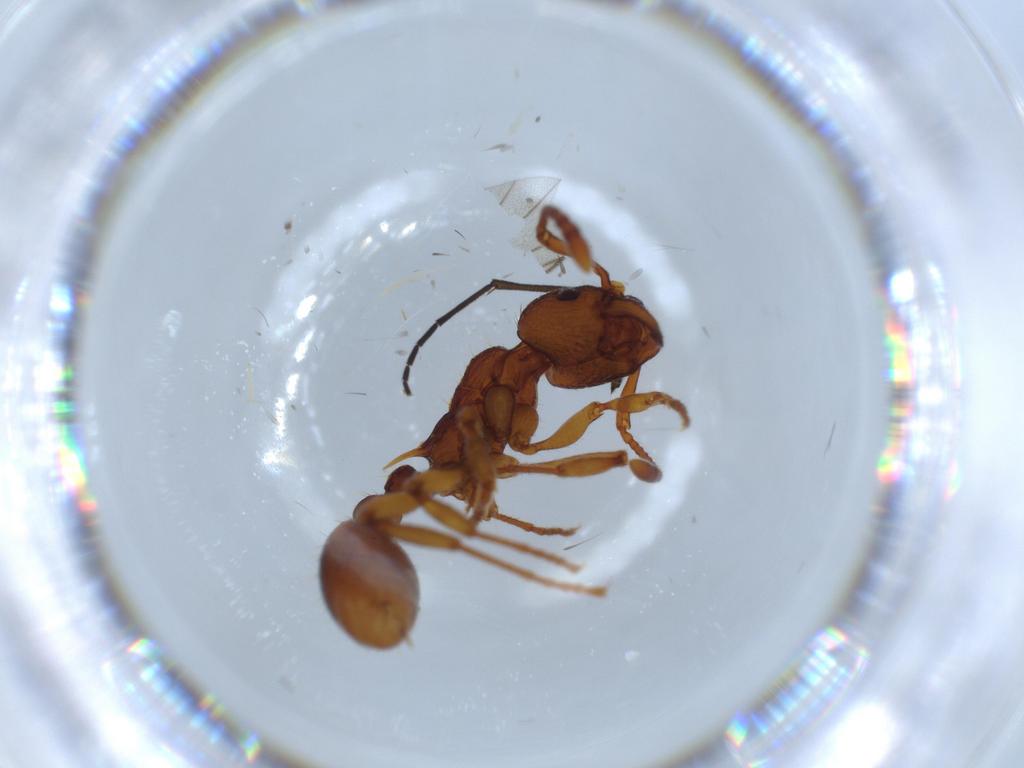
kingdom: Animalia
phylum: Arthropoda
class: Insecta
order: Hymenoptera
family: Formicidae
